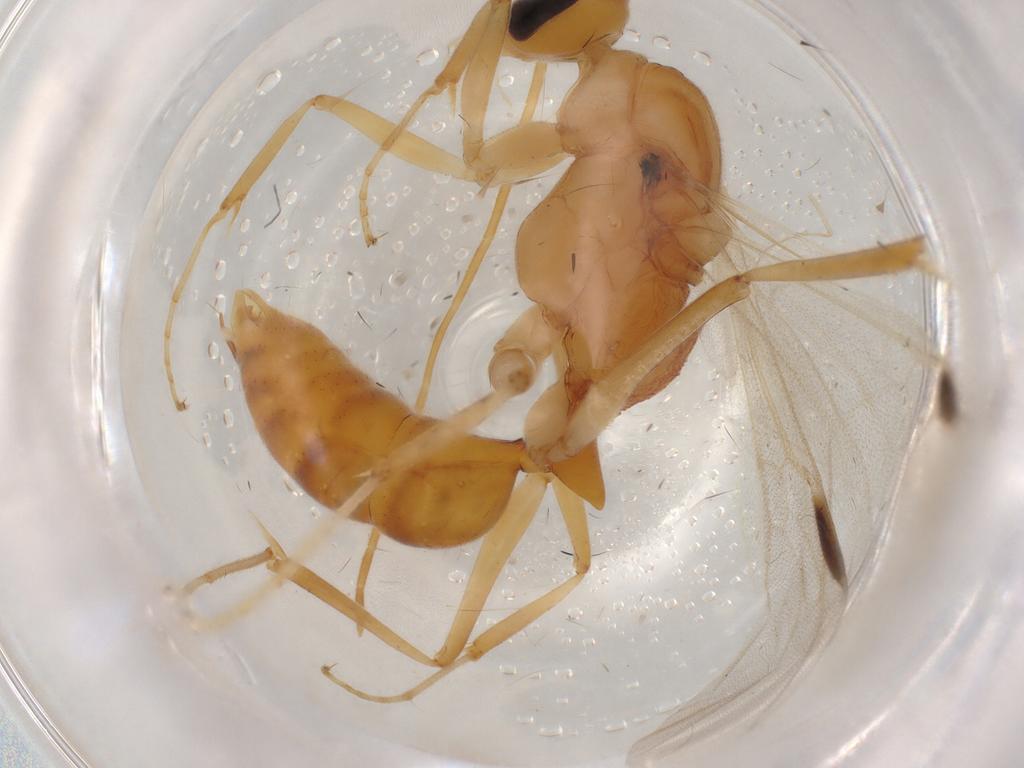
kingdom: Animalia
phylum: Arthropoda
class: Insecta
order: Hymenoptera
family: Formicidae
